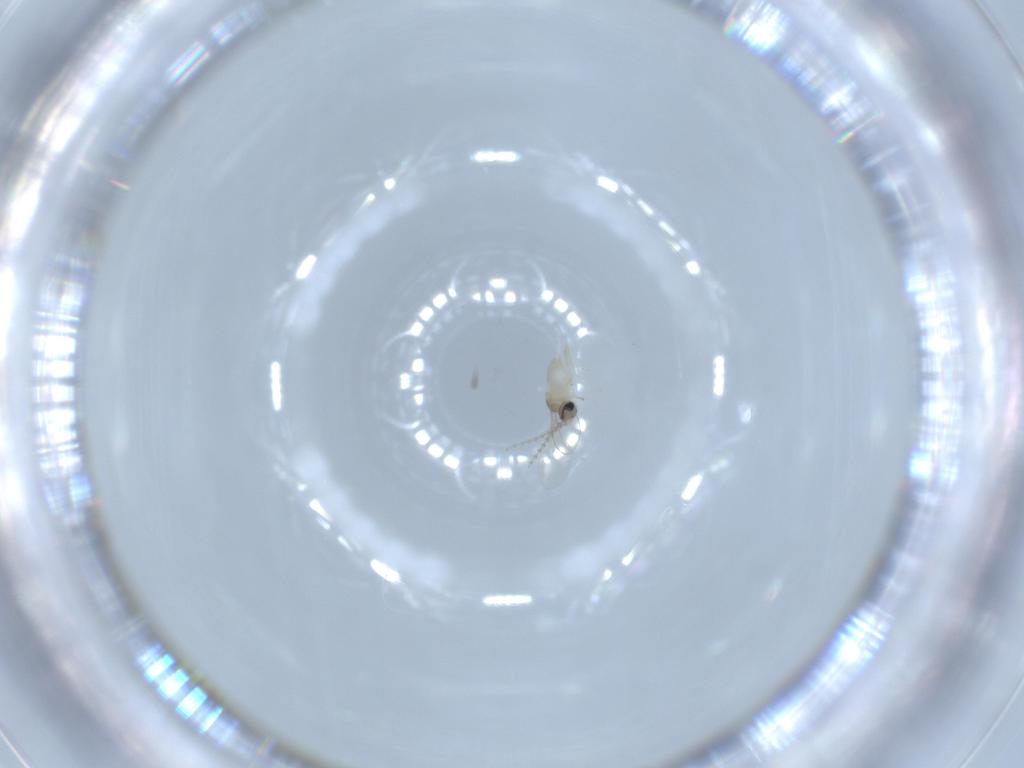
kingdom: Animalia
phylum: Arthropoda
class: Insecta
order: Diptera
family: Cecidomyiidae
